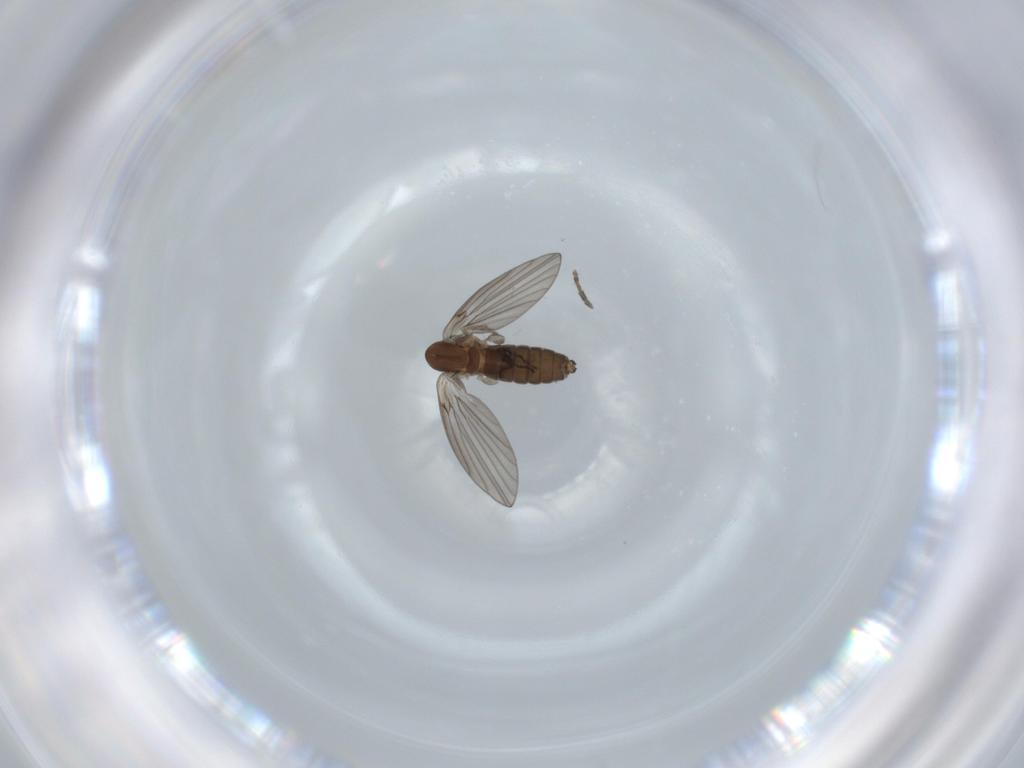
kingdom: Animalia
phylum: Arthropoda
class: Insecta
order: Diptera
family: Psychodidae
